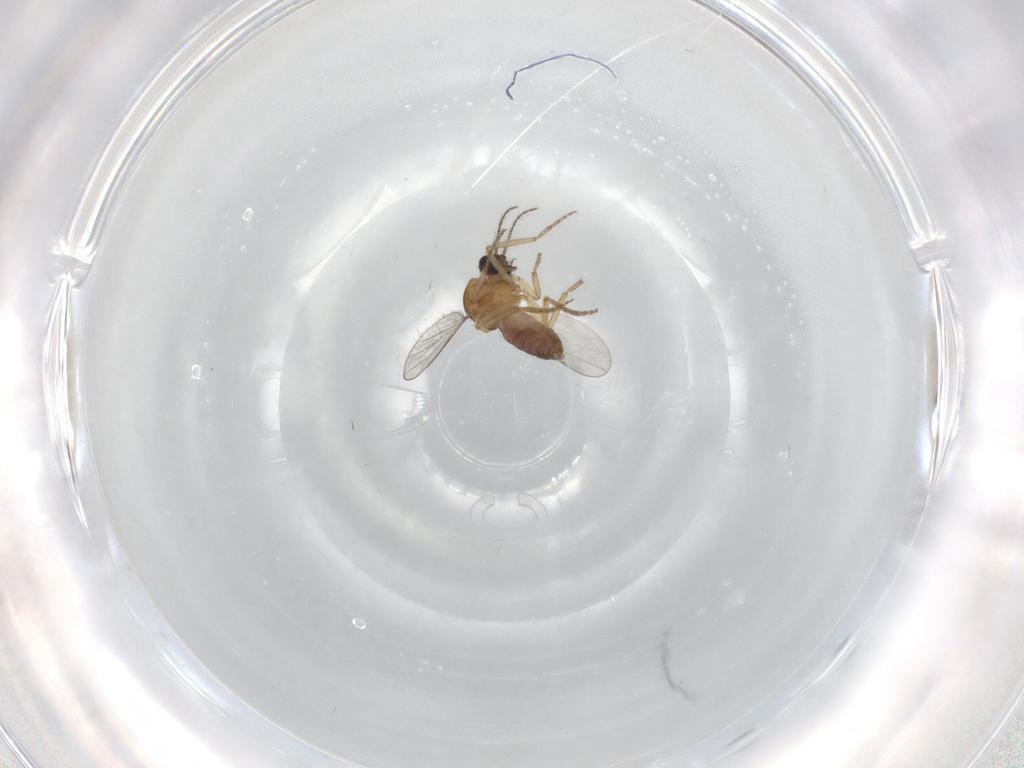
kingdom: Animalia
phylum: Arthropoda
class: Insecta
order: Diptera
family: Ceratopogonidae
